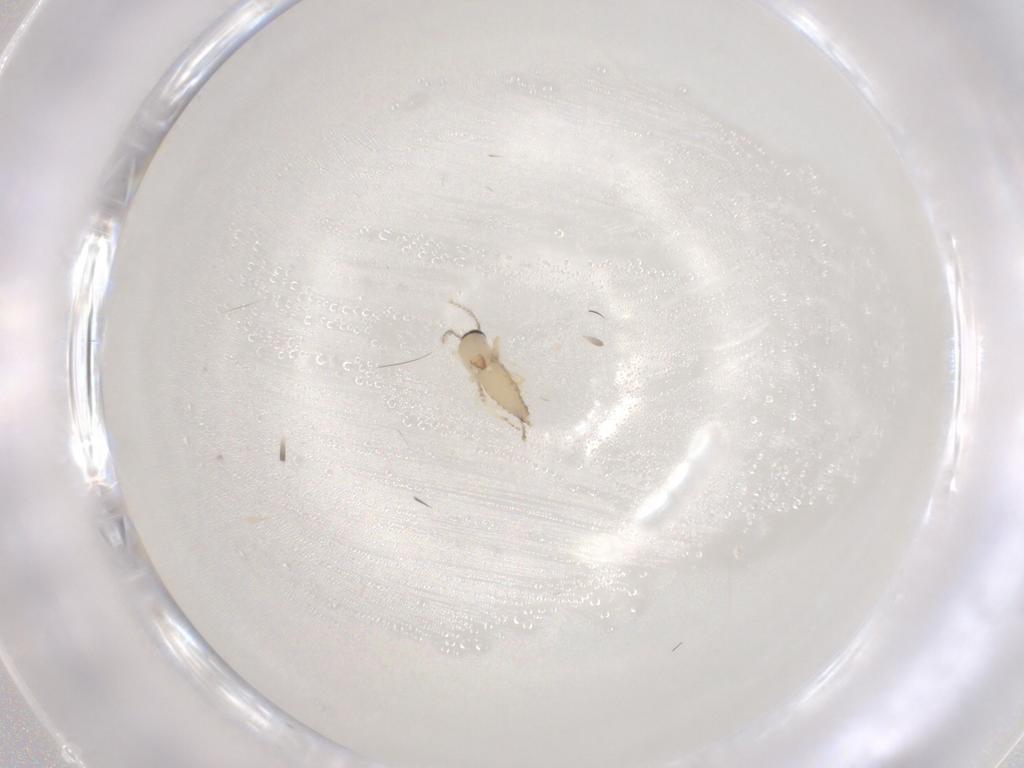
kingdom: Animalia
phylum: Arthropoda
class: Insecta
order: Diptera
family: Cecidomyiidae
